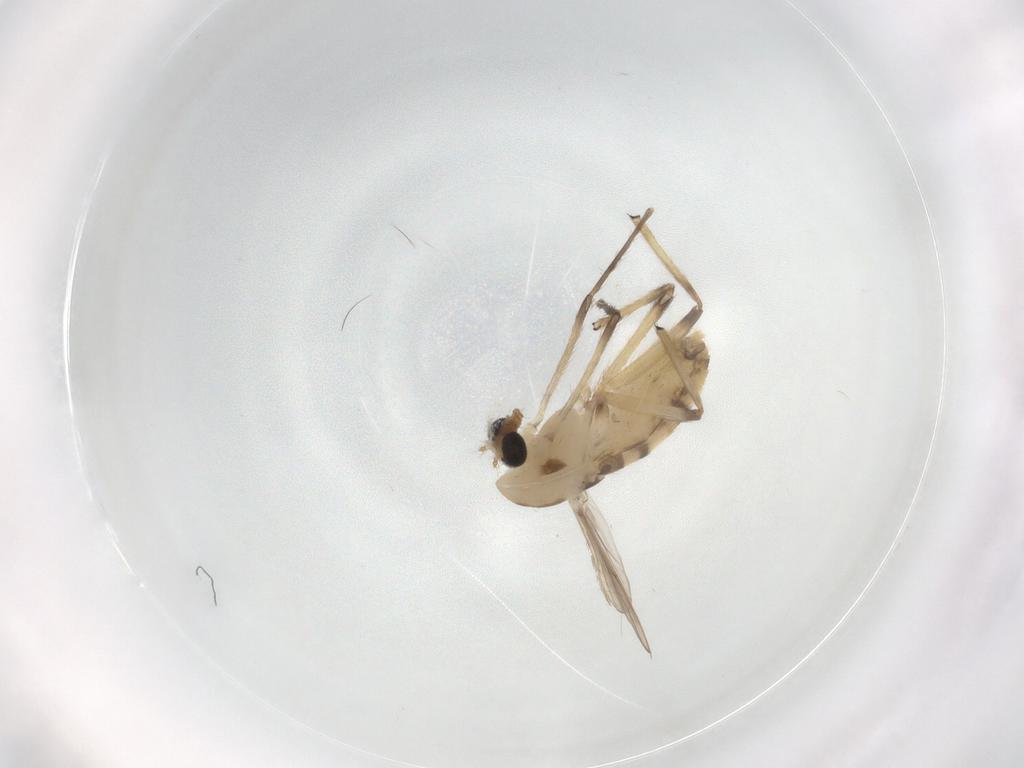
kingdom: Animalia
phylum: Arthropoda
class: Insecta
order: Diptera
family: Chironomidae
